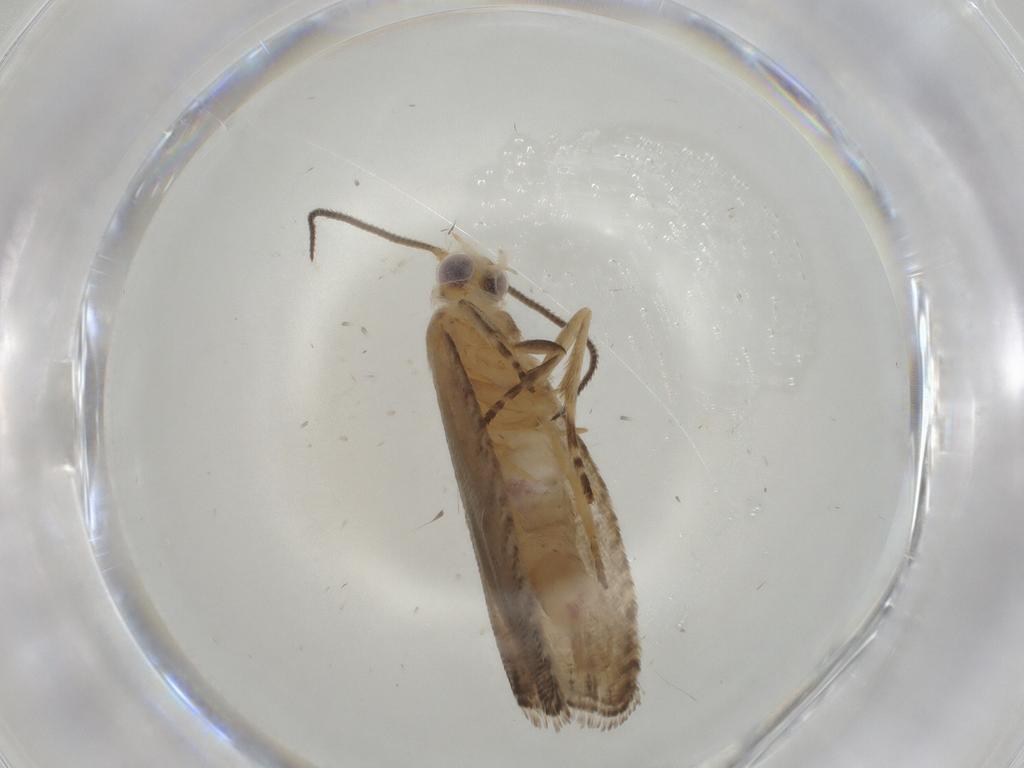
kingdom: Animalia
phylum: Arthropoda
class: Insecta
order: Lepidoptera
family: Tortricidae
